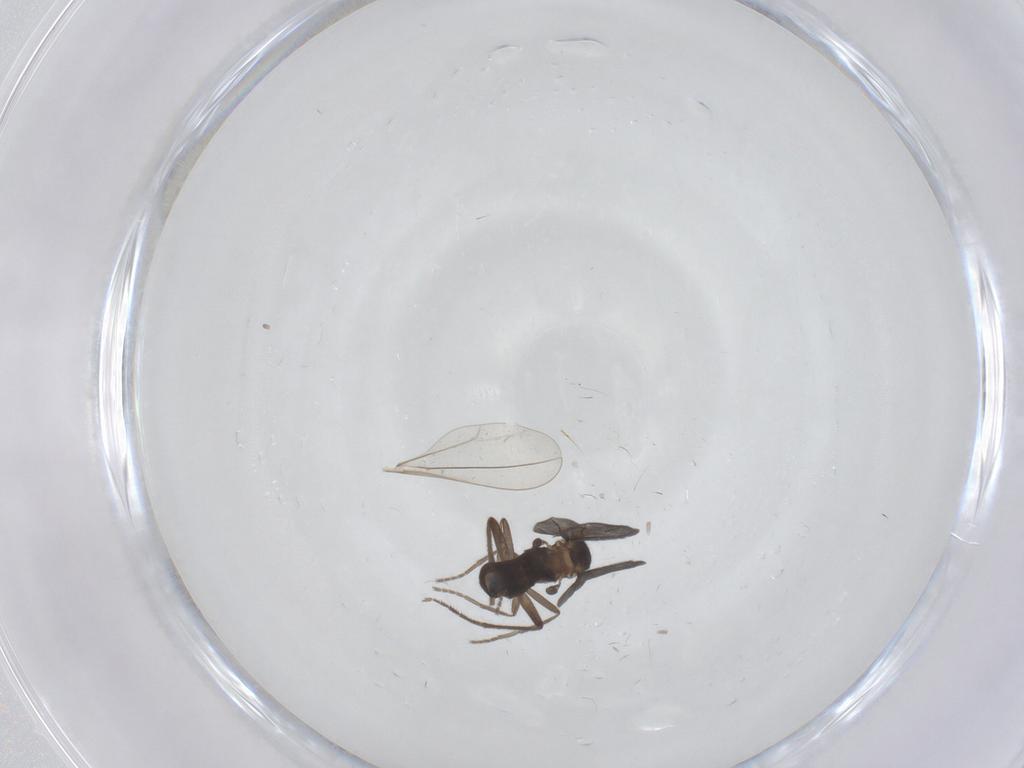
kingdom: Animalia
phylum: Arthropoda
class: Insecta
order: Diptera
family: Phoridae
